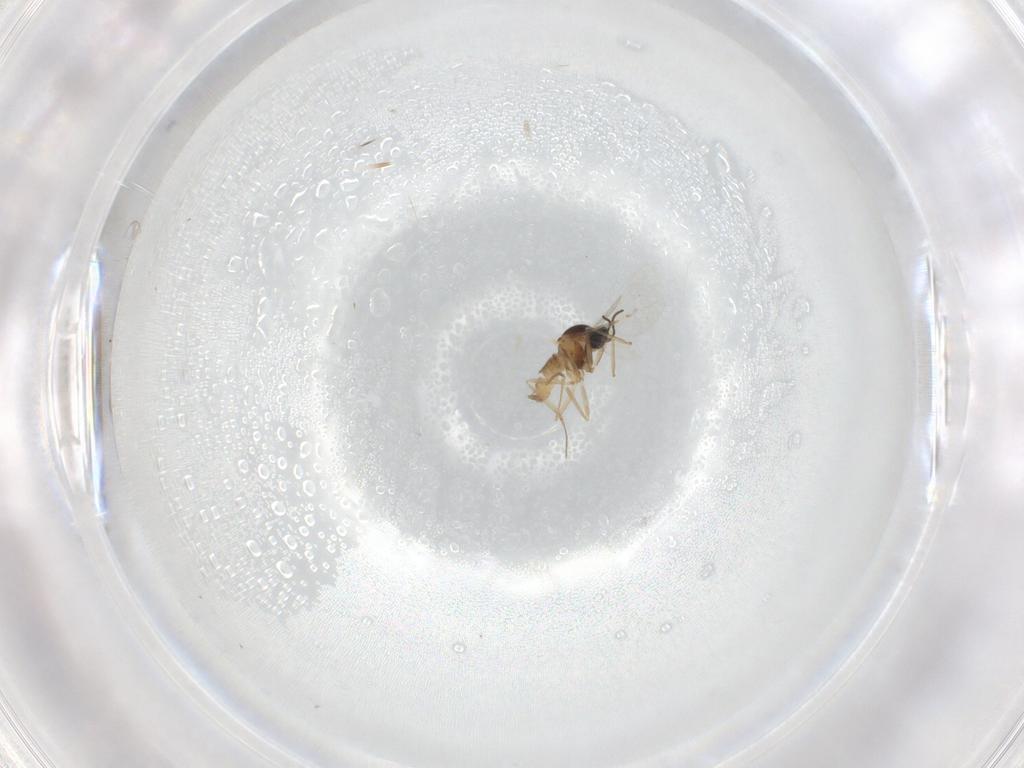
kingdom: Animalia
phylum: Arthropoda
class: Insecta
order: Diptera
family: Cecidomyiidae
